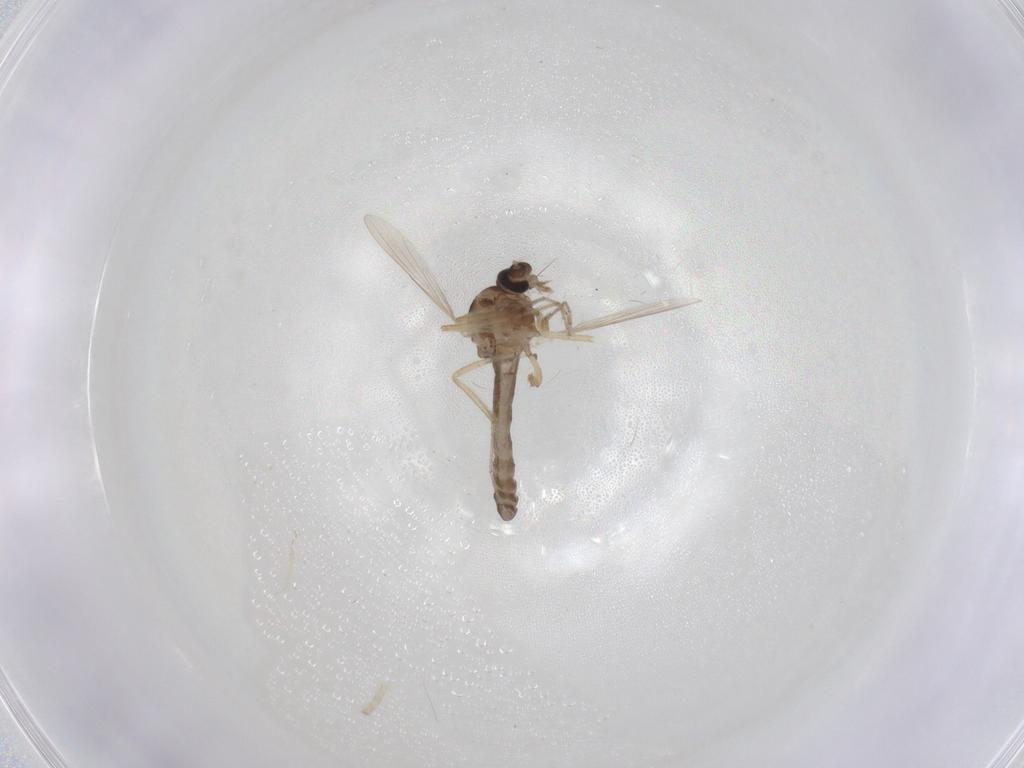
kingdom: Animalia
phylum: Arthropoda
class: Insecta
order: Diptera
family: Ceratopogonidae
